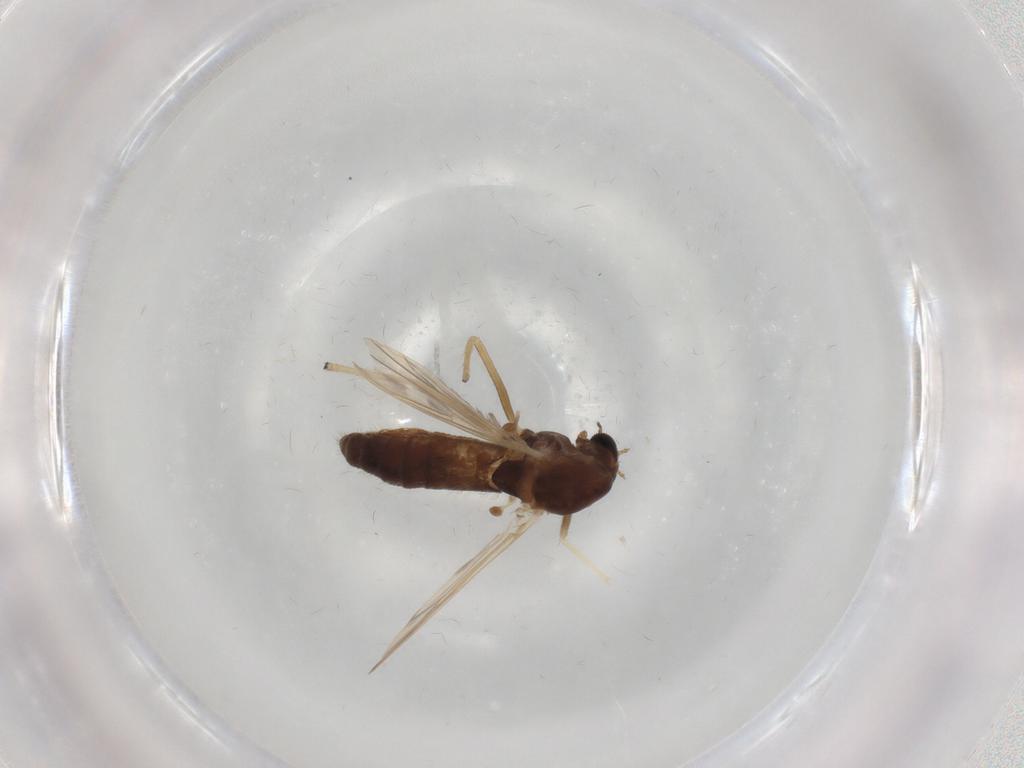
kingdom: Animalia
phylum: Arthropoda
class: Insecta
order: Diptera
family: Chironomidae
